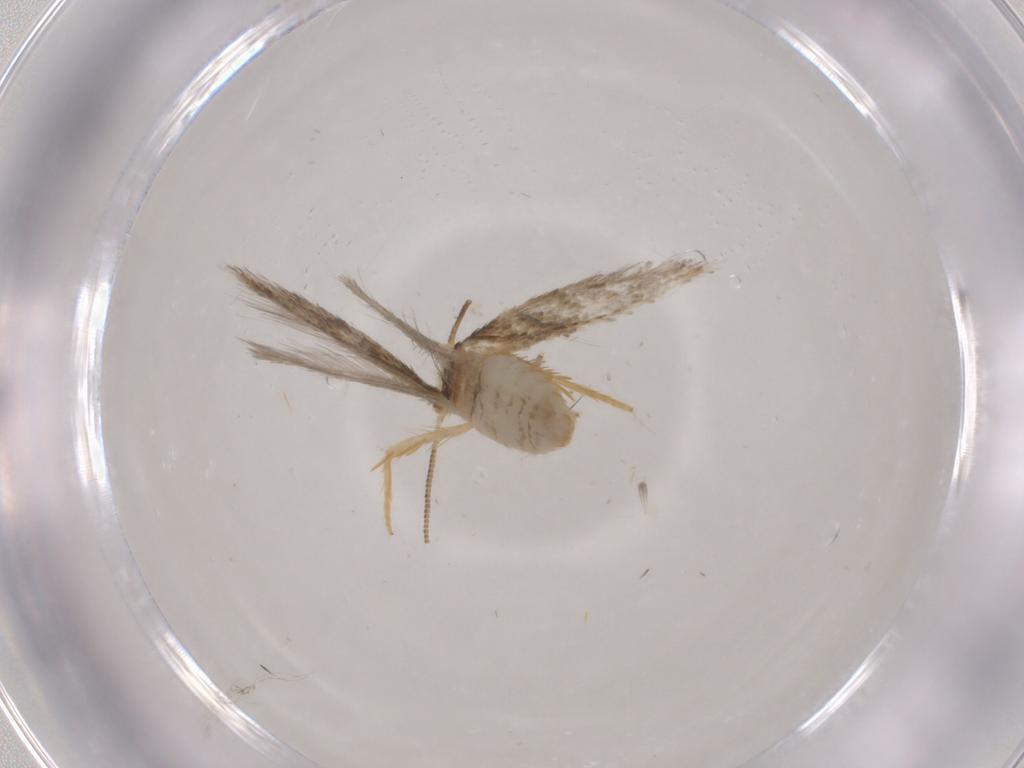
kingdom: Animalia
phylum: Arthropoda
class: Insecta
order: Lepidoptera
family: Nepticulidae
